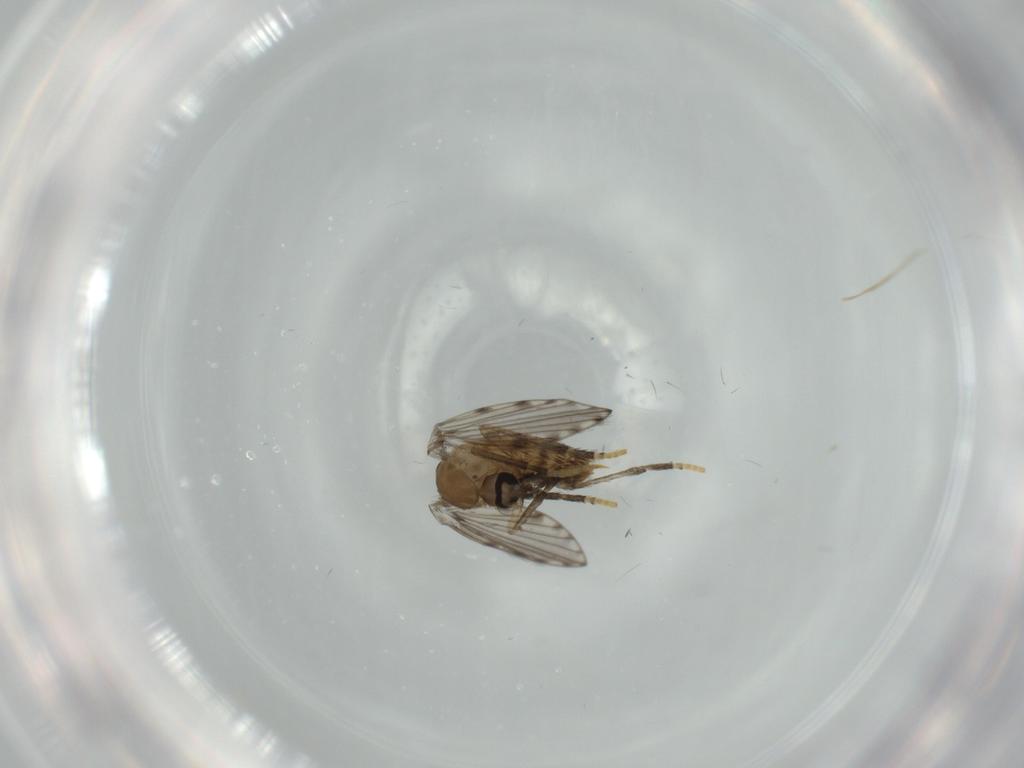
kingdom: Animalia
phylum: Arthropoda
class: Insecta
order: Diptera
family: Psychodidae
